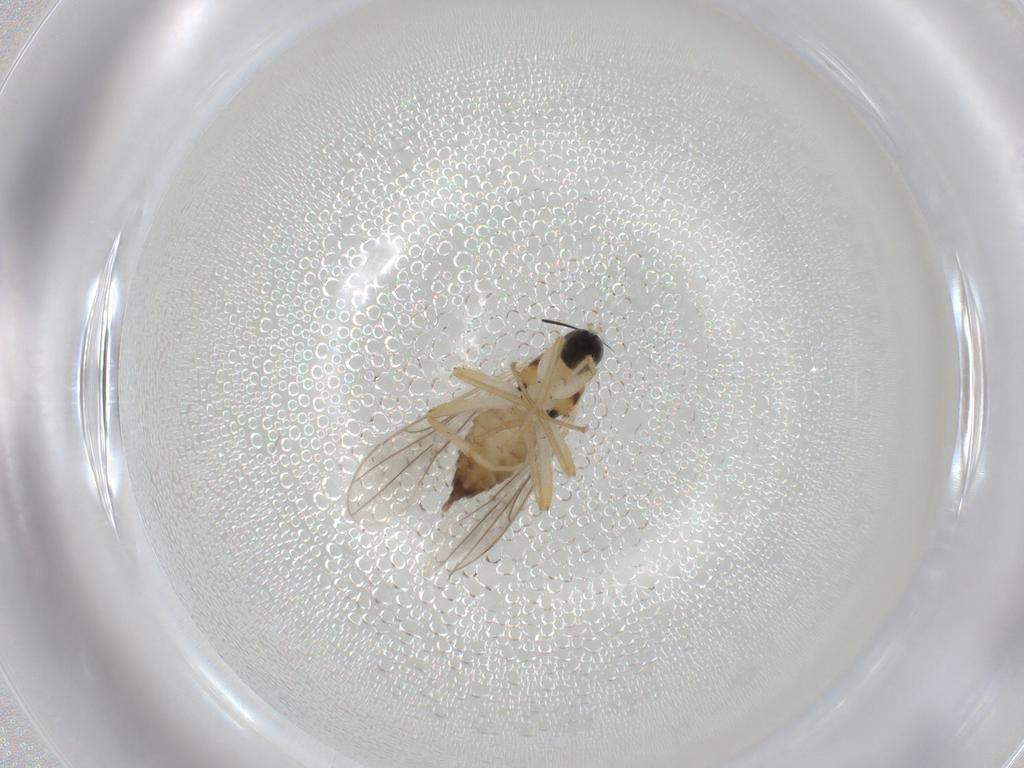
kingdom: Animalia
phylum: Arthropoda
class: Insecta
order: Diptera
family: Hybotidae
